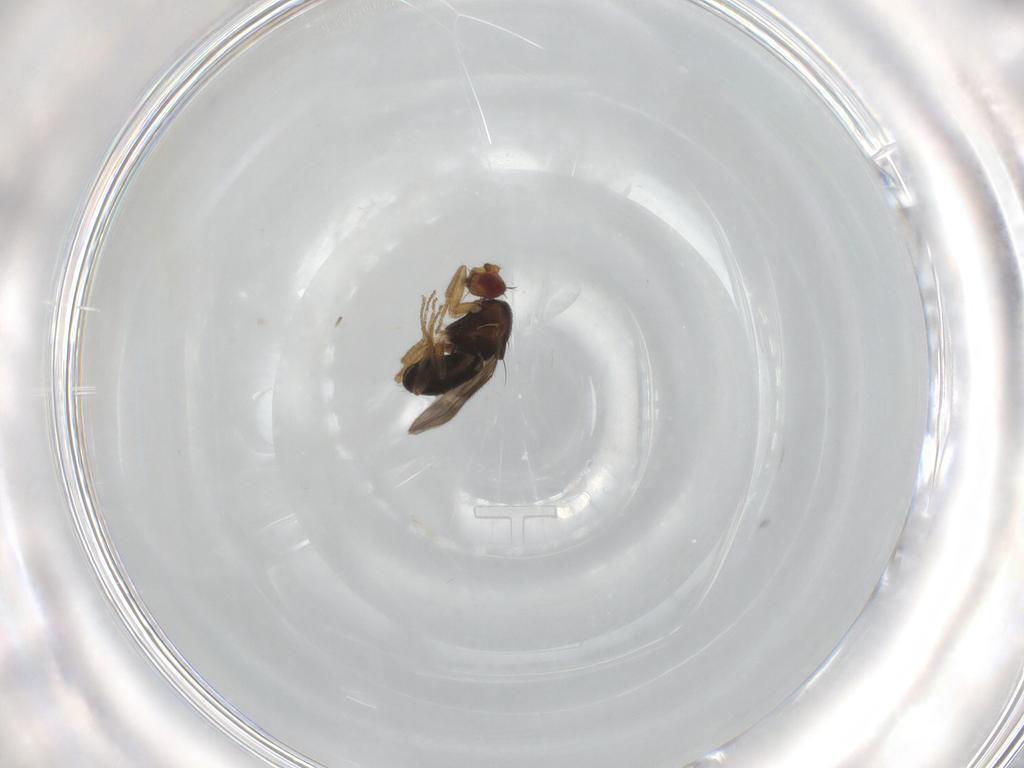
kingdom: Animalia
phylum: Arthropoda
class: Insecta
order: Diptera
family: Sphaeroceridae
